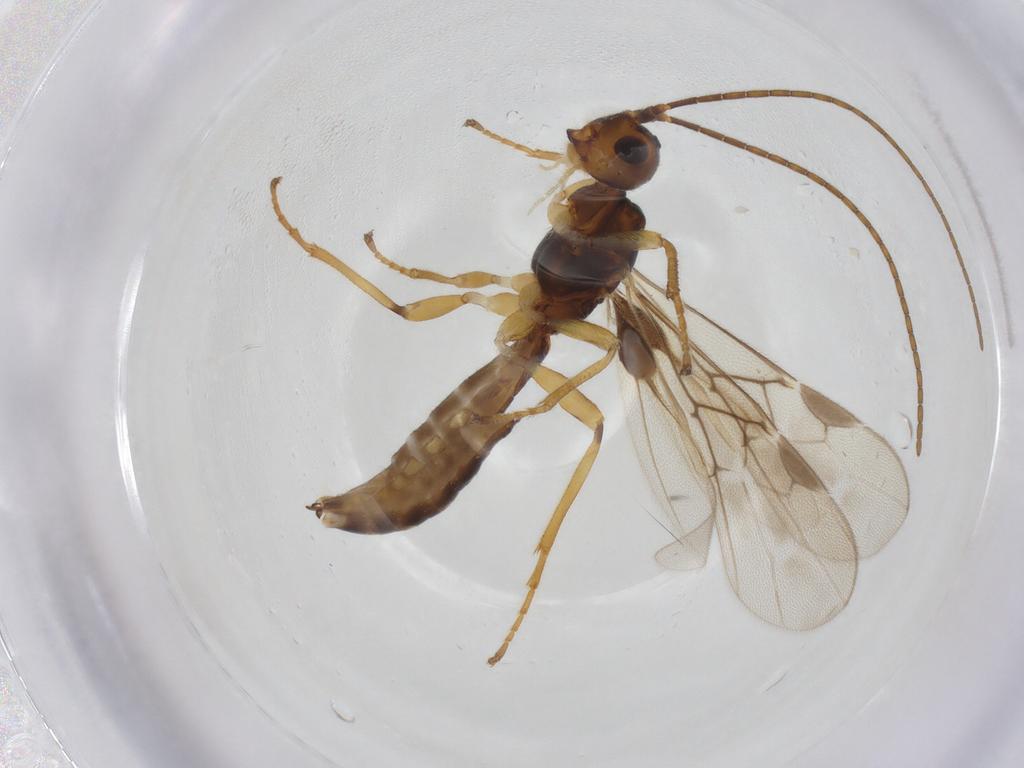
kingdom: Animalia
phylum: Arthropoda
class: Insecta
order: Hymenoptera
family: Braconidae
